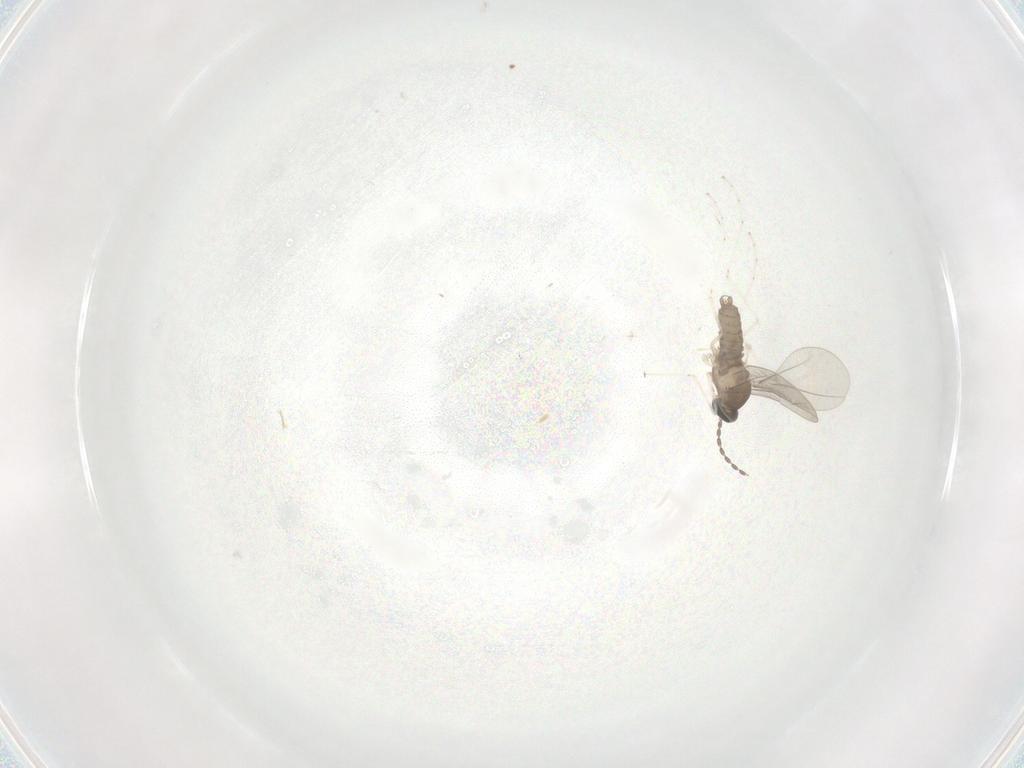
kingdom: Animalia
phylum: Arthropoda
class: Insecta
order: Diptera
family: Cecidomyiidae
